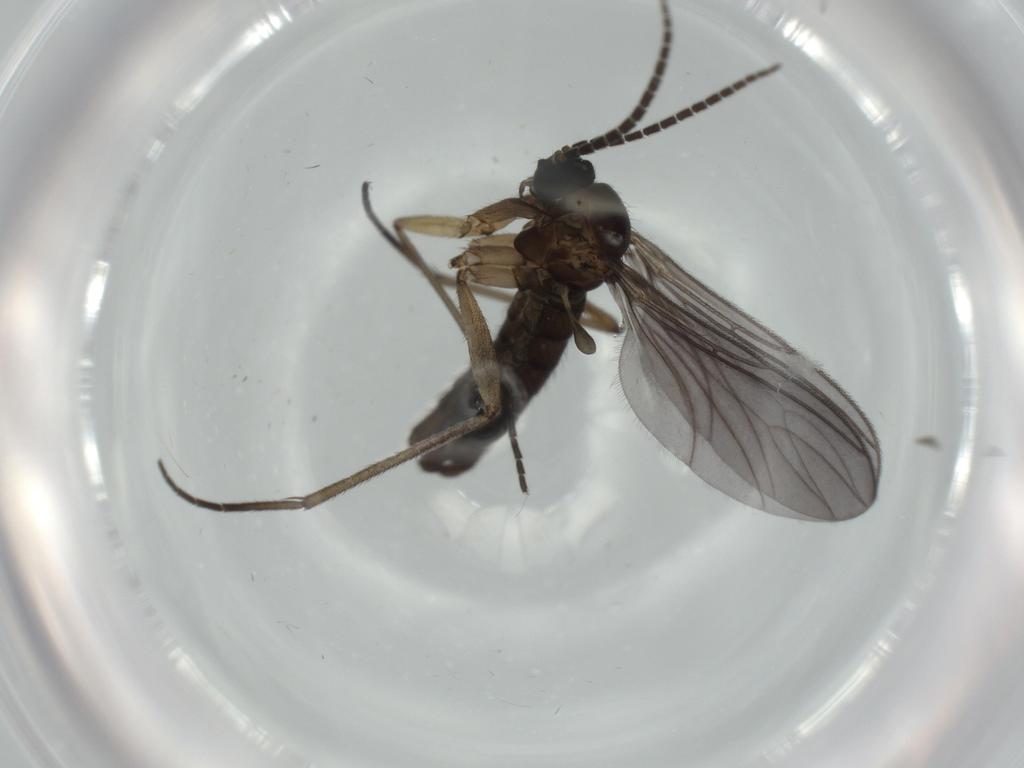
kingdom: Animalia
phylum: Arthropoda
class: Insecta
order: Diptera
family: Sciaridae
